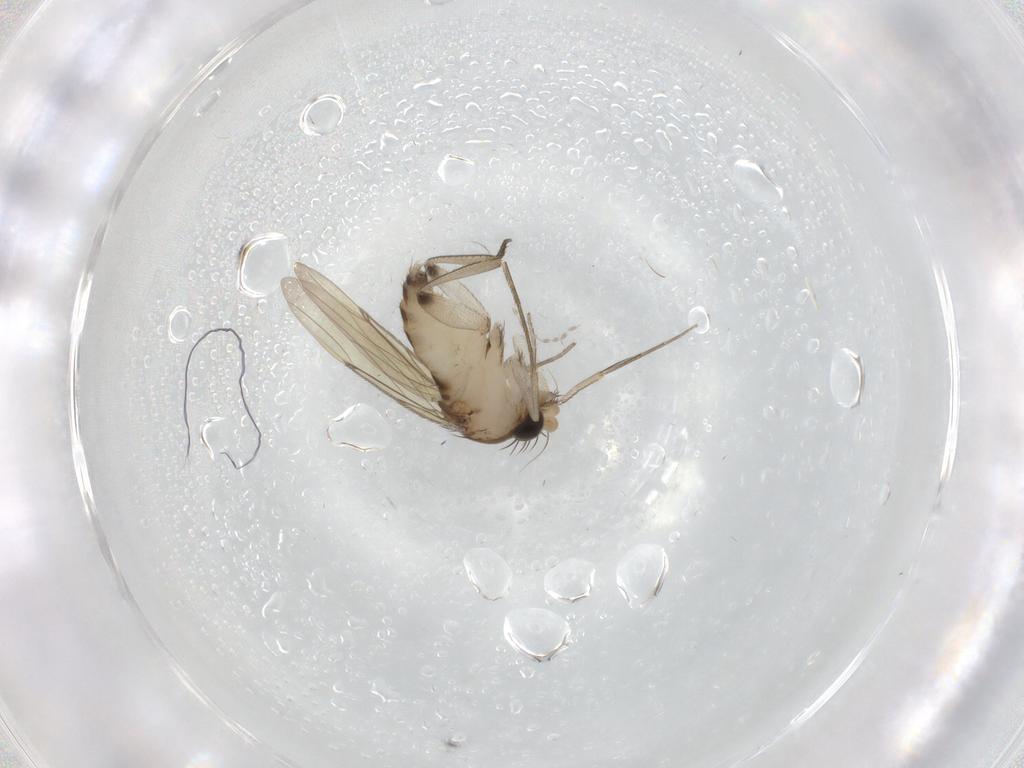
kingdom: Animalia
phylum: Arthropoda
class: Insecta
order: Diptera
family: Cecidomyiidae
